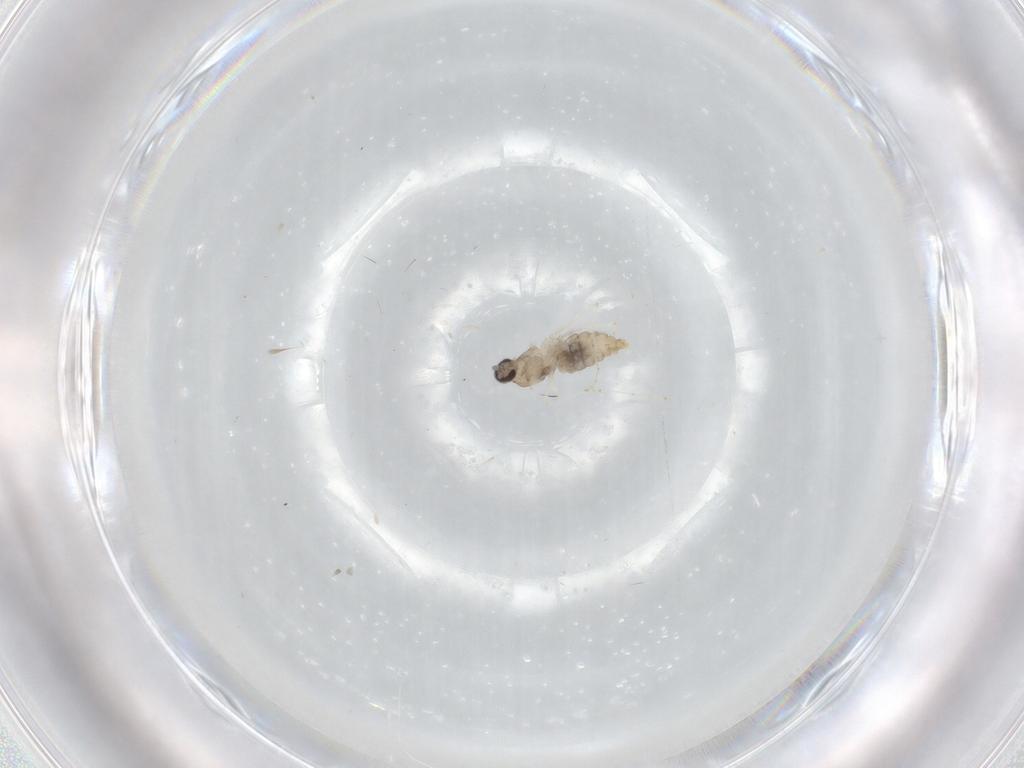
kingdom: Animalia
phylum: Arthropoda
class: Insecta
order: Diptera
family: Cecidomyiidae
